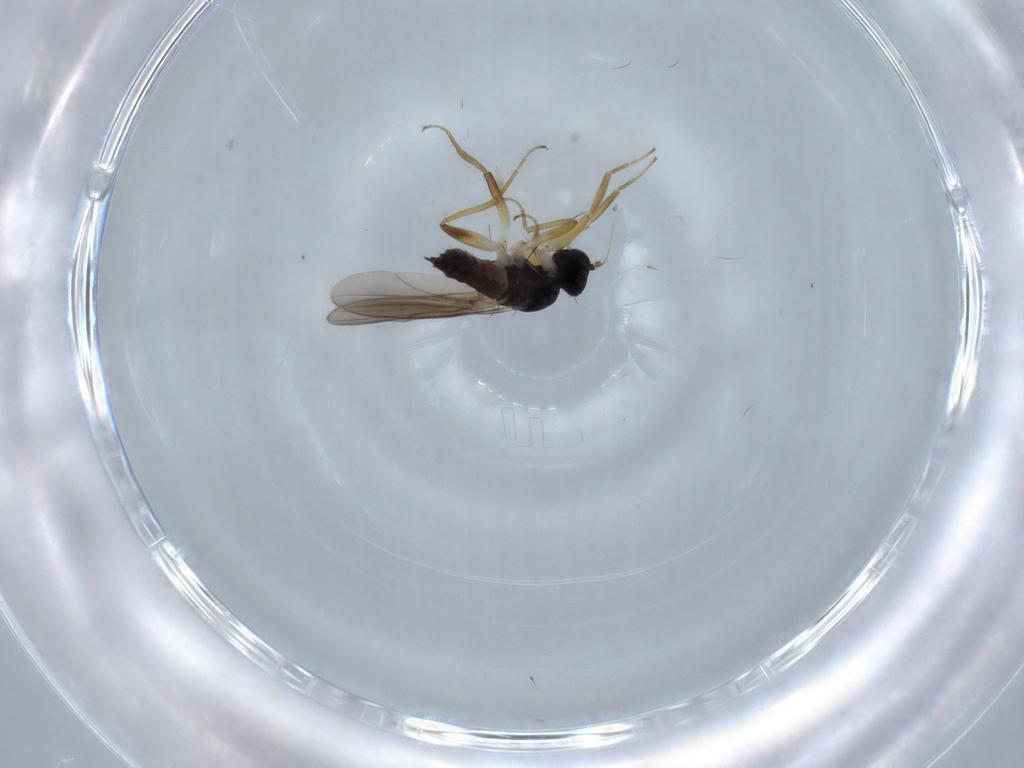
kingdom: Animalia
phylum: Arthropoda
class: Insecta
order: Diptera
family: Hybotidae
